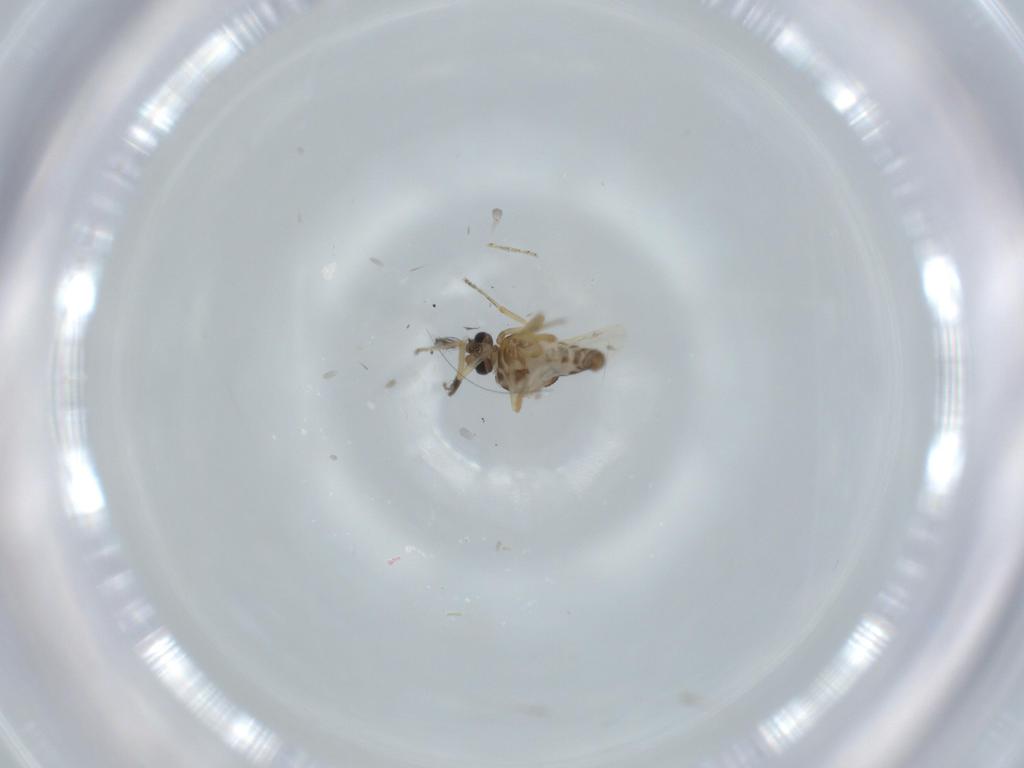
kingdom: Animalia
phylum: Arthropoda
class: Insecta
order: Diptera
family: Ceratopogonidae
